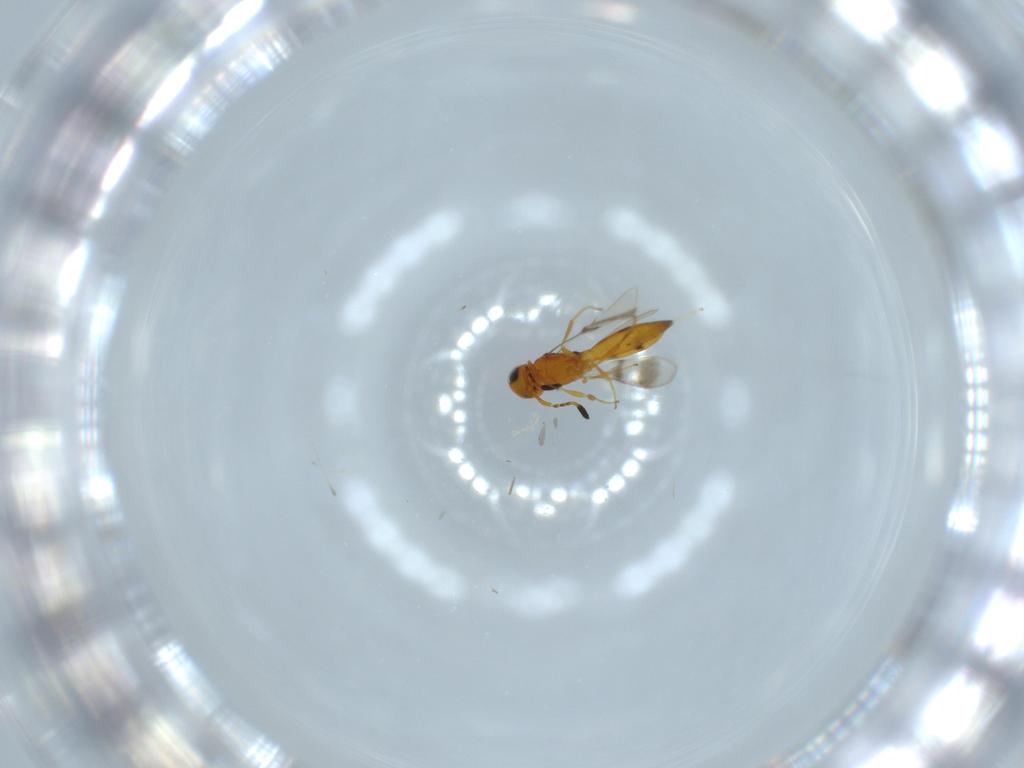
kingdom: Animalia
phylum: Arthropoda
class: Insecta
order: Hymenoptera
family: Scelionidae
